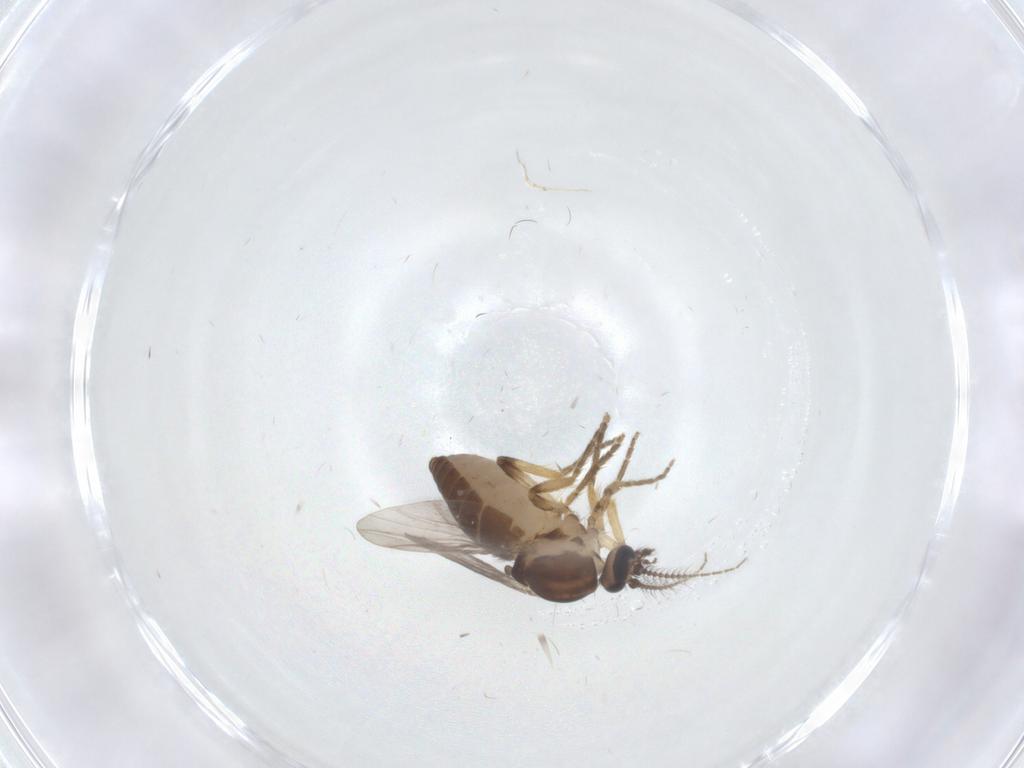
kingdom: Animalia
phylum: Arthropoda
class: Insecta
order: Diptera
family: Ceratopogonidae
